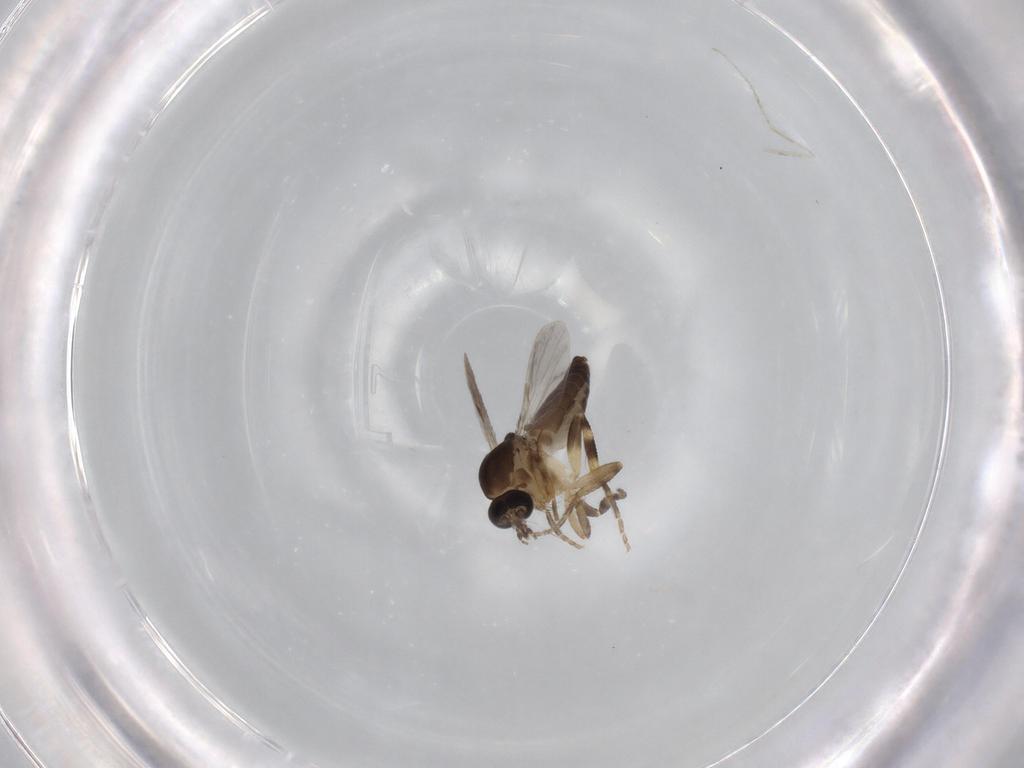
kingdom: Animalia
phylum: Arthropoda
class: Insecta
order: Diptera
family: Ceratopogonidae
